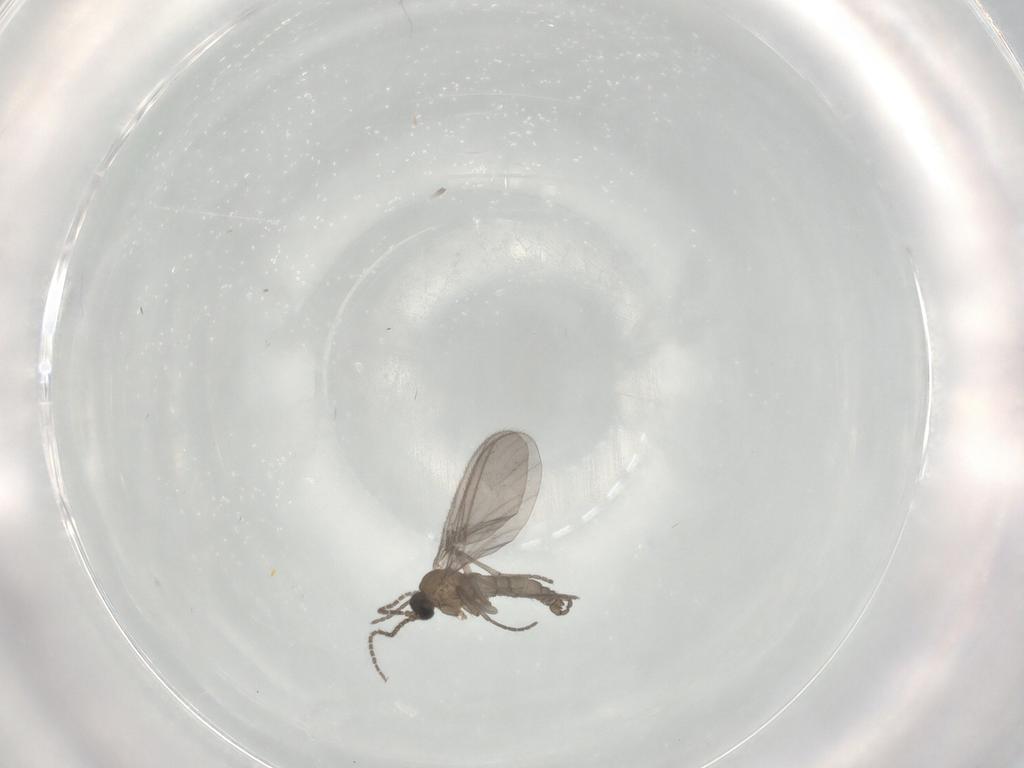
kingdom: Animalia
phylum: Arthropoda
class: Insecta
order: Diptera
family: Sciaridae
